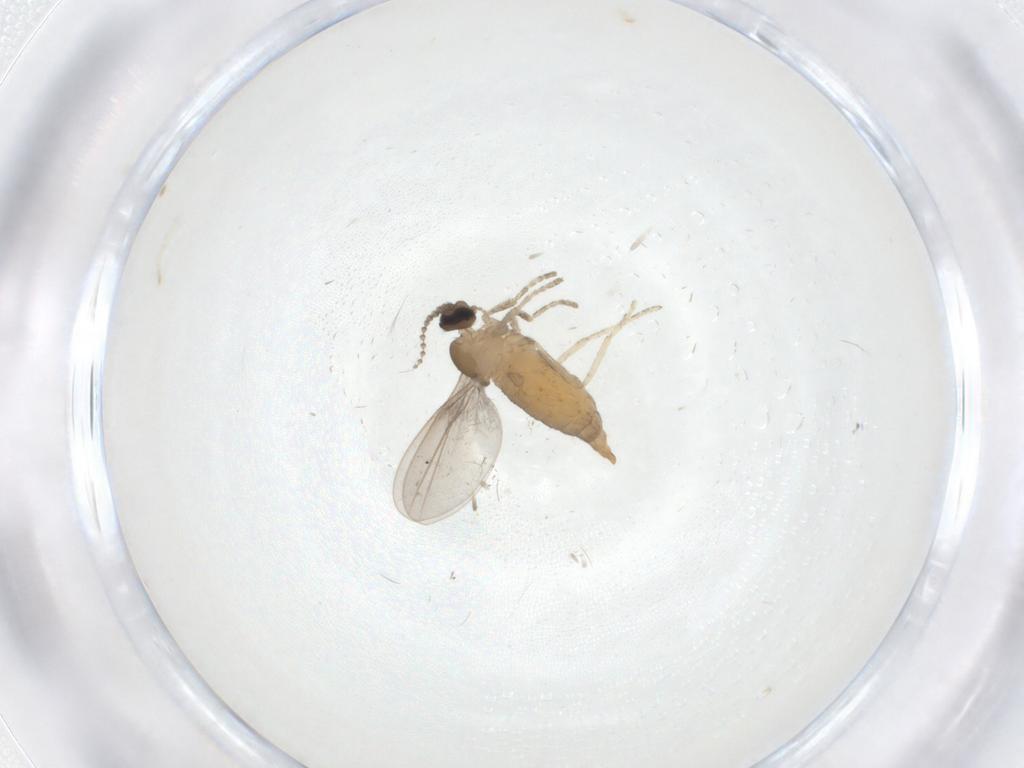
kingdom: Animalia
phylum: Arthropoda
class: Insecta
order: Diptera
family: Cecidomyiidae
